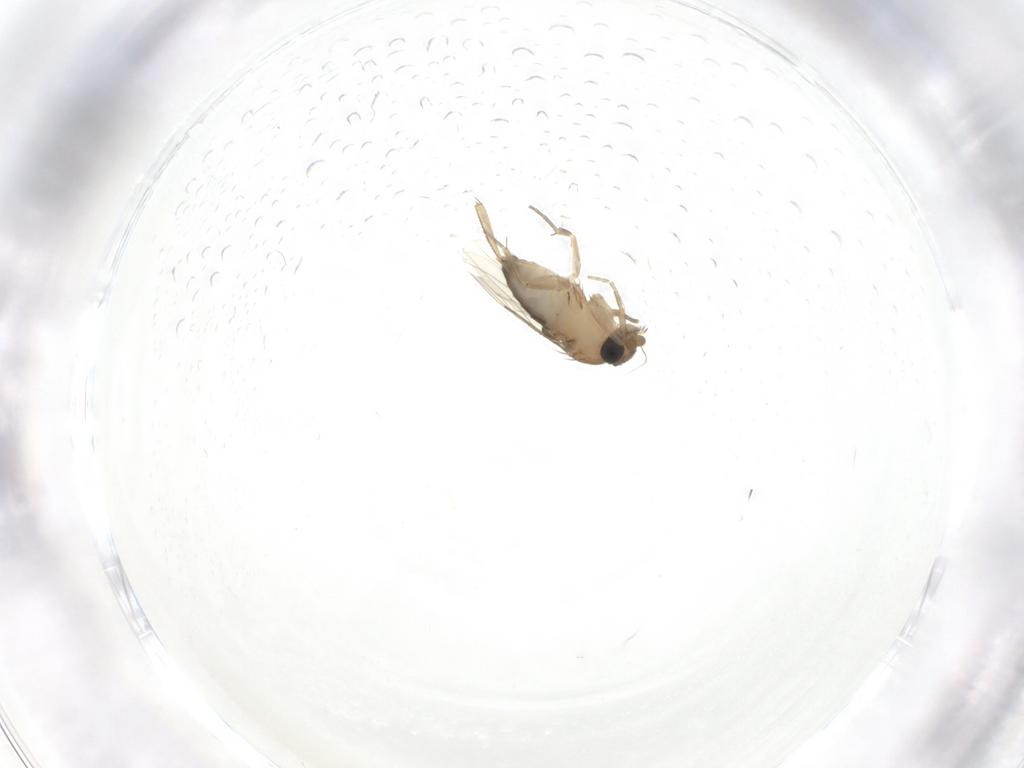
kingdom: Animalia
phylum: Arthropoda
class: Insecta
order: Diptera
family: Phoridae
